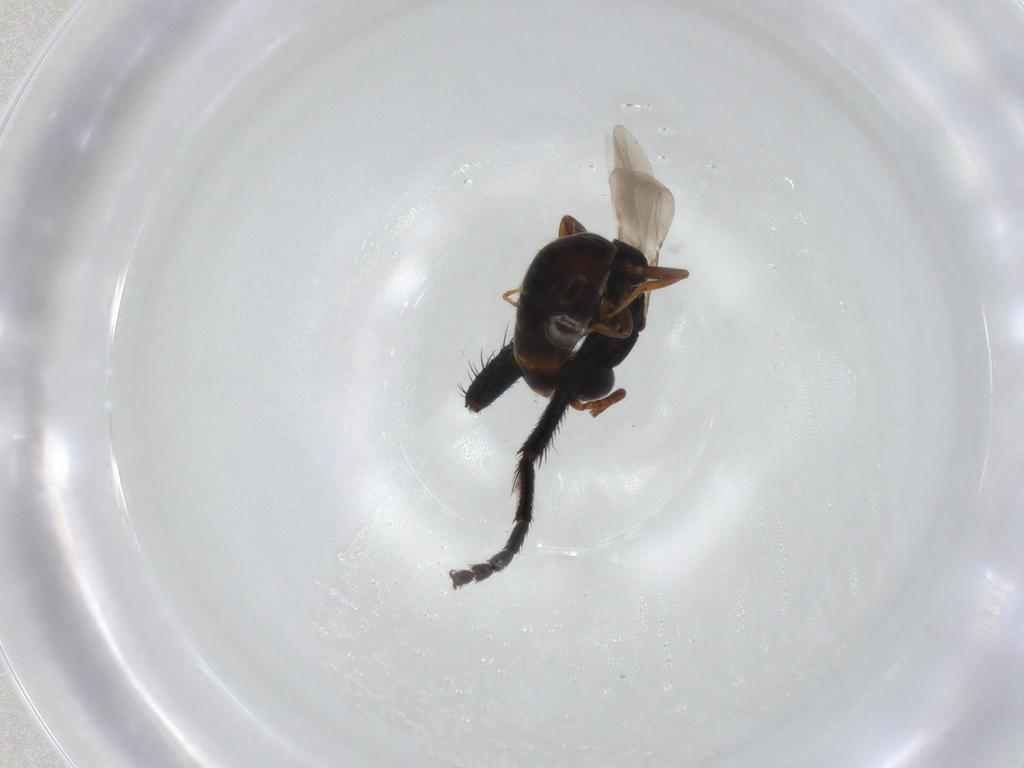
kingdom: Animalia
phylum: Arthropoda
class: Insecta
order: Hymenoptera
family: Bethylidae
